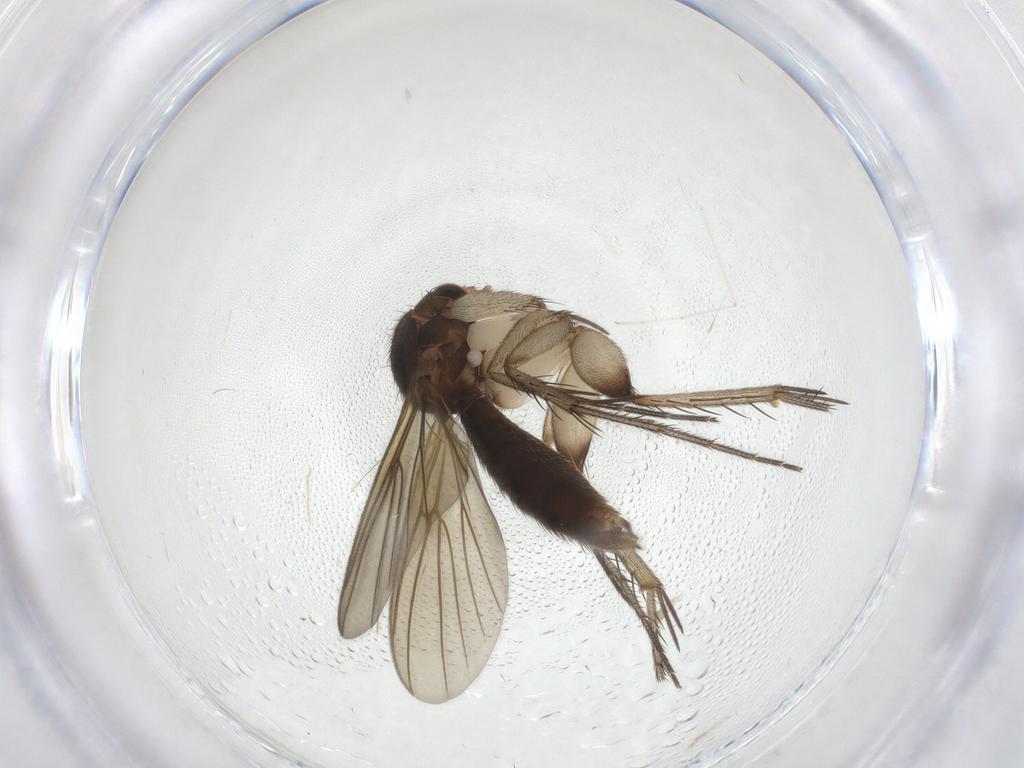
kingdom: Animalia
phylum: Arthropoda
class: Insecta
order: Diptera
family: Mycetophilidae
